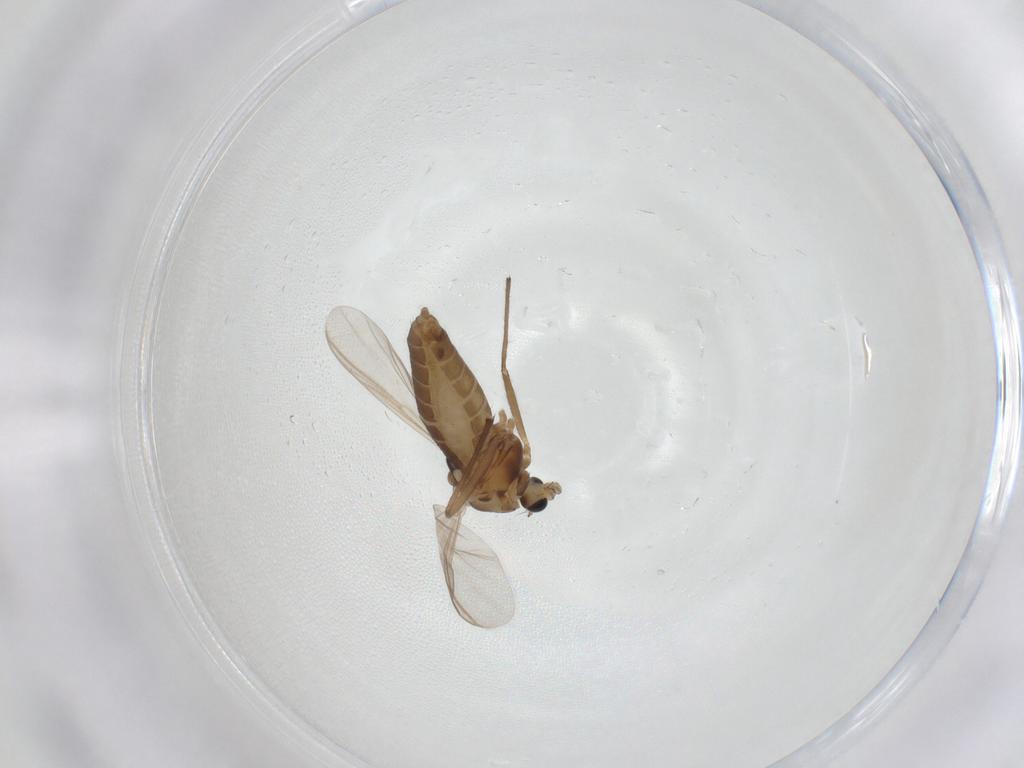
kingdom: Animalia
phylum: Arthropoda
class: Insecta
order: Diptera
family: Chironomidae
